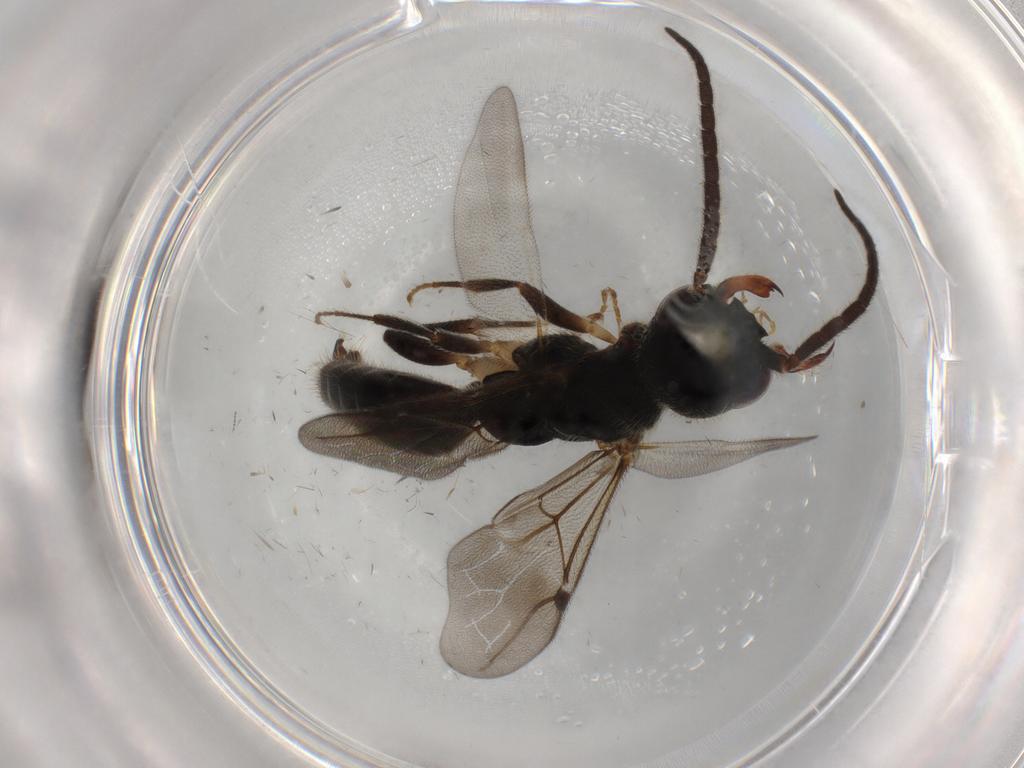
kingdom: Animalia
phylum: Arthropoda
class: Insecta
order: Hymenoptera
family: Bethylidae
